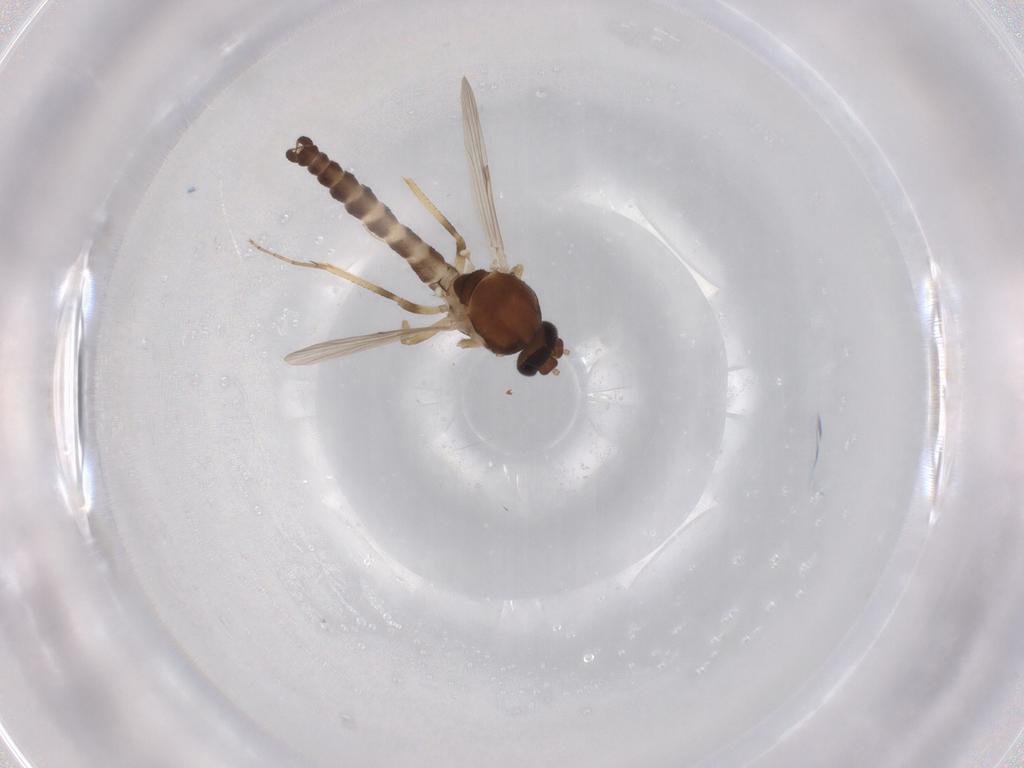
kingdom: Animalia
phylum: Arthropoda
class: Insecta
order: Diptera
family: Ceratopogonidae
